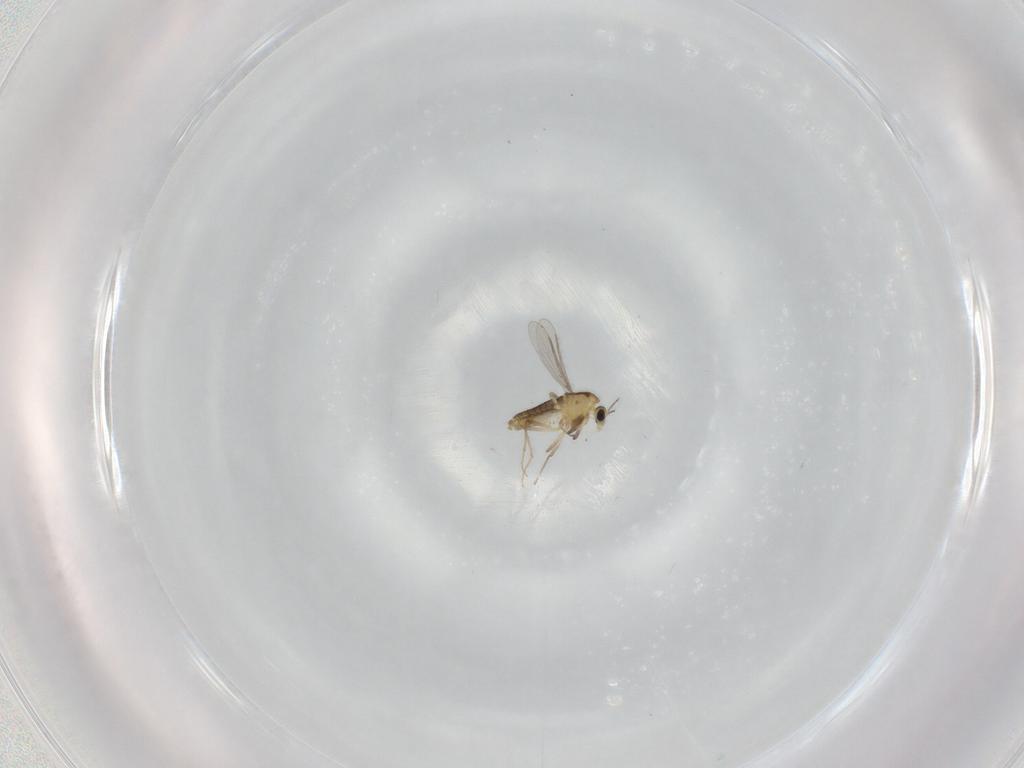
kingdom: Animalia
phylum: Arthropoda
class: Insecta
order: Diptera
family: Chironomidae
